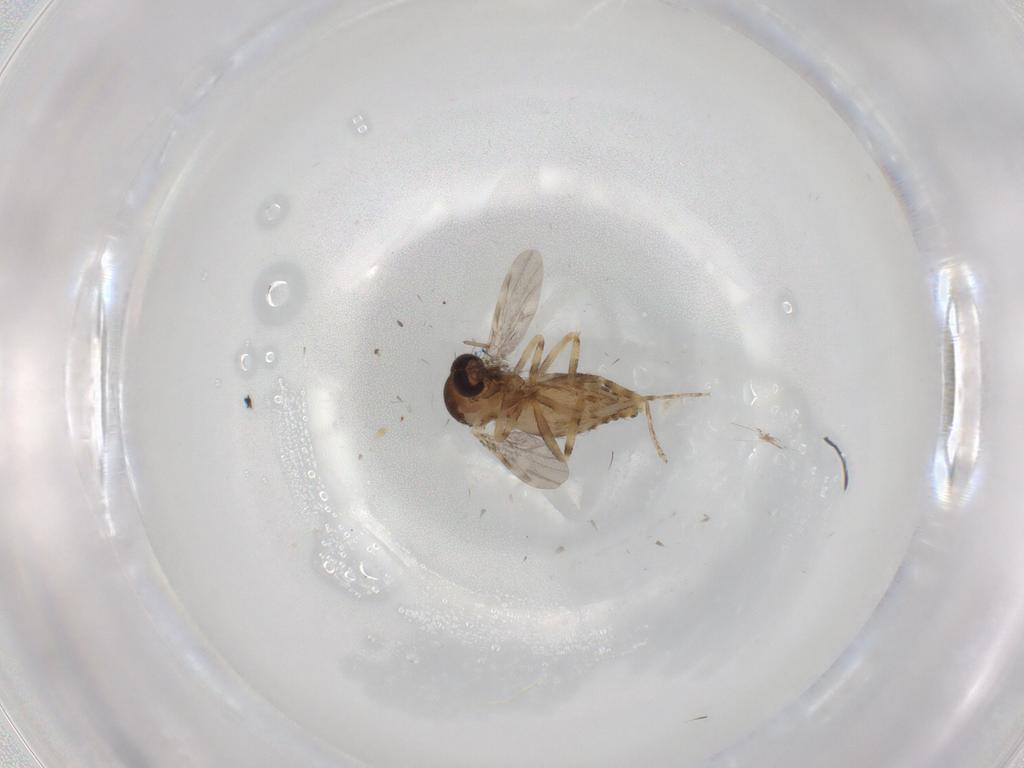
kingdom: Animalia
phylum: Arthropoda
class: Insecta
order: Diptera
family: Ceratopogonidae
